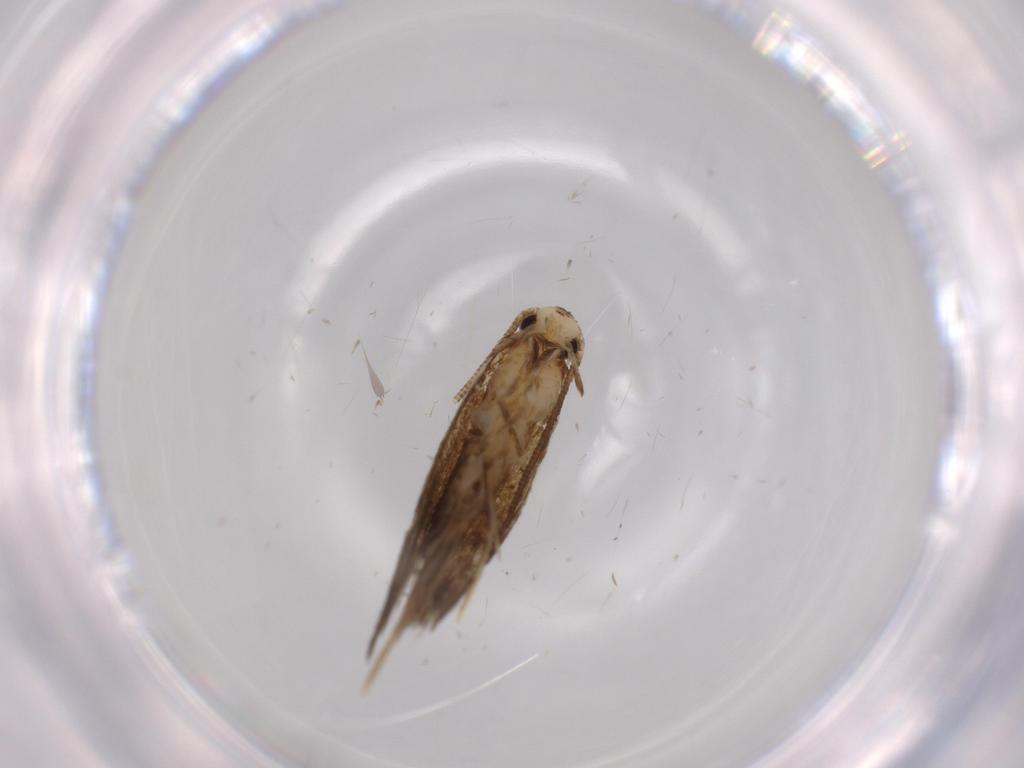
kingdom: Animalia
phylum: Arthropoda
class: Insecta
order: Lepidoptera
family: Tineidae
